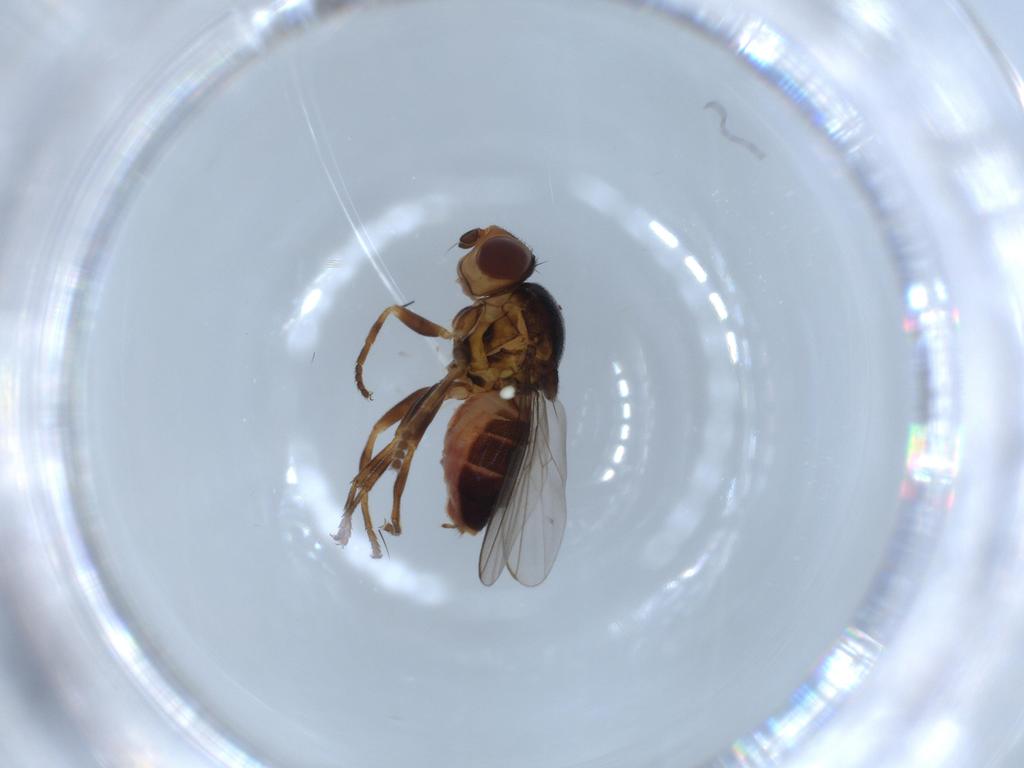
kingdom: Animalia
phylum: Arthropoda
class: Insecta
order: Diptera
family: Chloropidae
